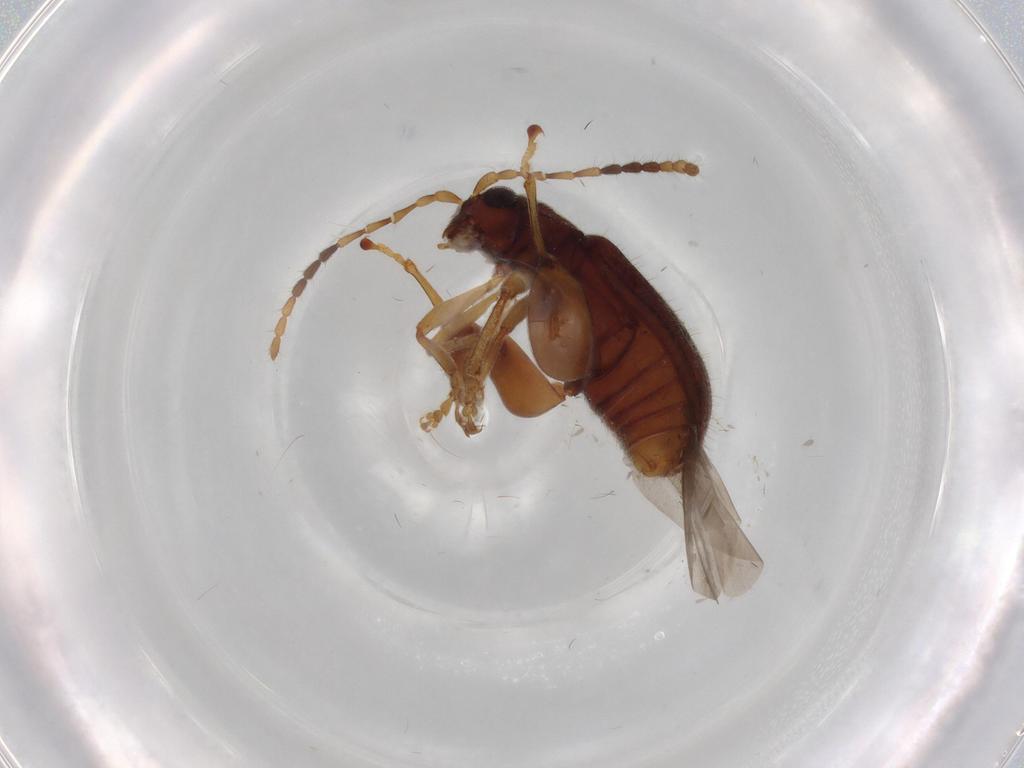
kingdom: Animalia
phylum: Arthropoda
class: Insecta
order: Coleoptera
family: Chrysomelidae
